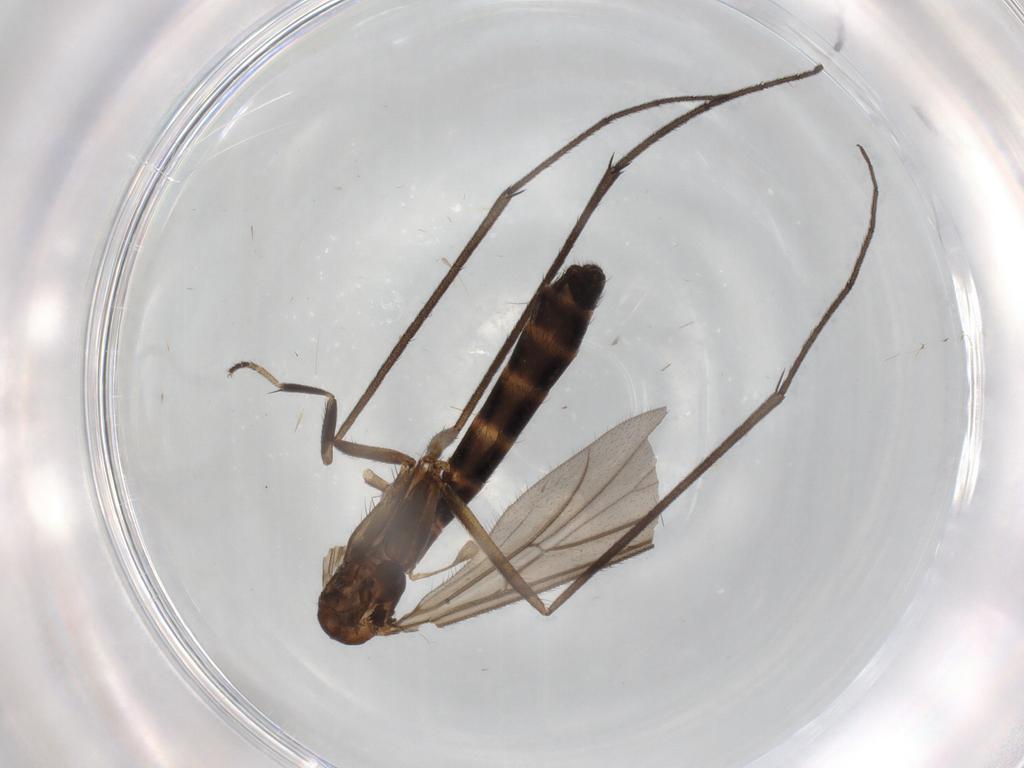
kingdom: Animalia
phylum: Arthropoda
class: Insecta
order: Diptera
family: Keroplatidae
